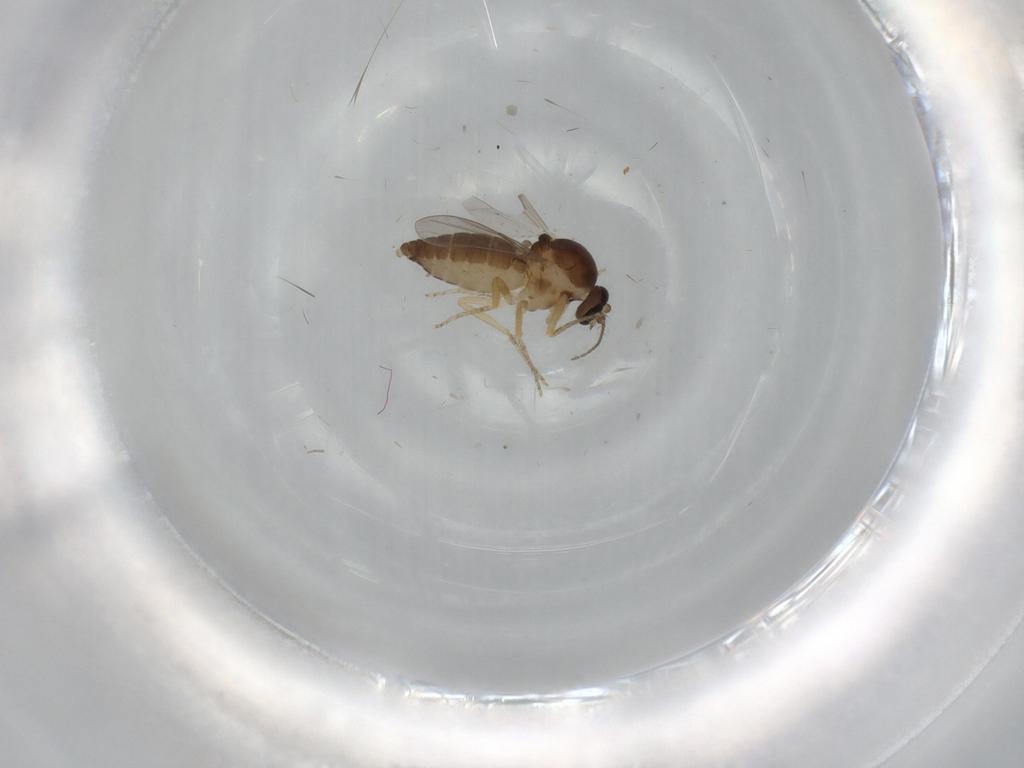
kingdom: Animalia
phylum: Arthropoda
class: Insecta
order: Diptera
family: Ceratopogonidae
